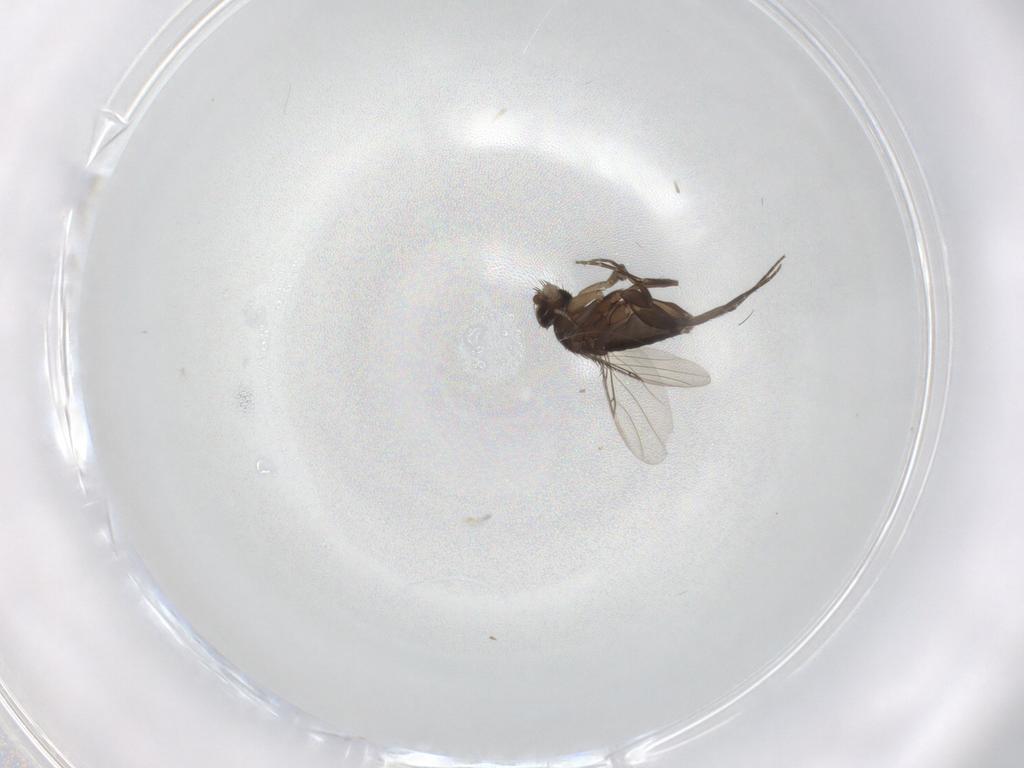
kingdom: Animalia
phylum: Arthropoda
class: Insecta
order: Diptera
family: Phoridae
